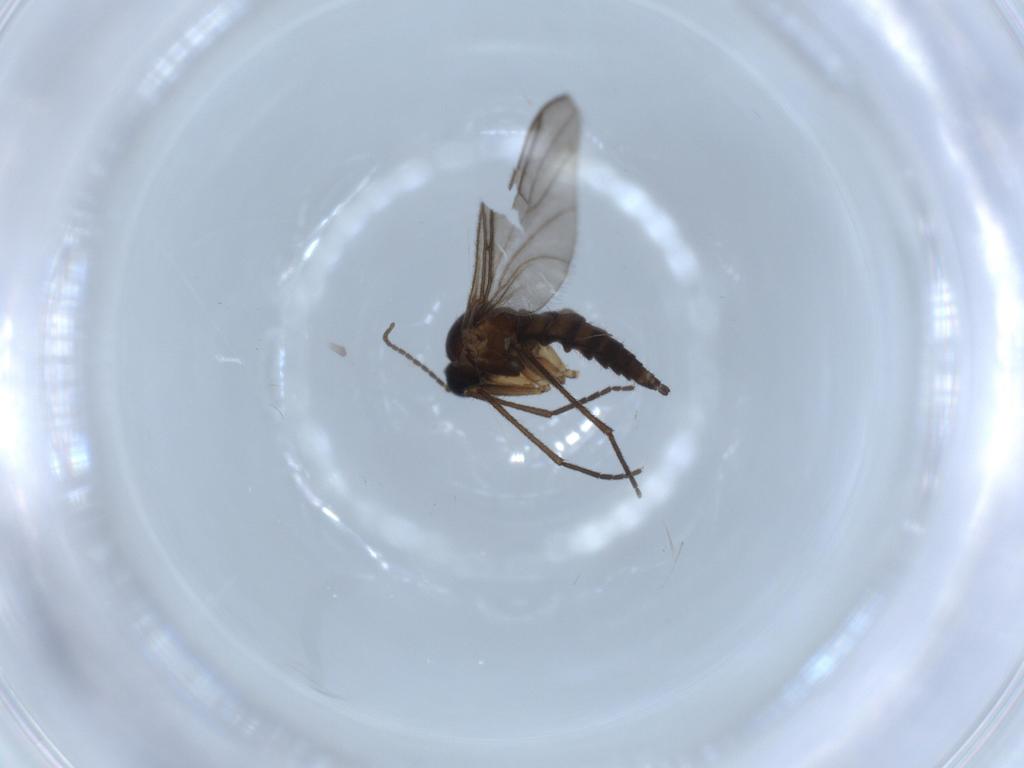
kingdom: Animalia
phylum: Arthropoda
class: Insecta
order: Diptera
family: Sciaridae
